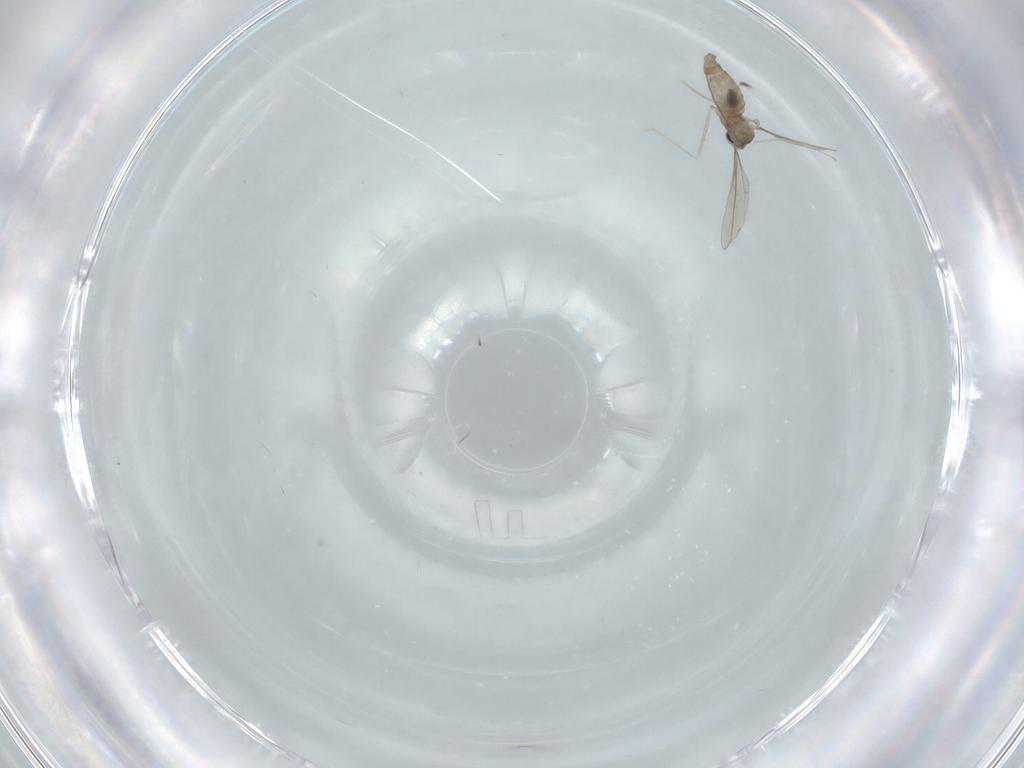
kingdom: Animalia
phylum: Arthropoda
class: Insecta
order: Diptera
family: Cecidomyiidae
